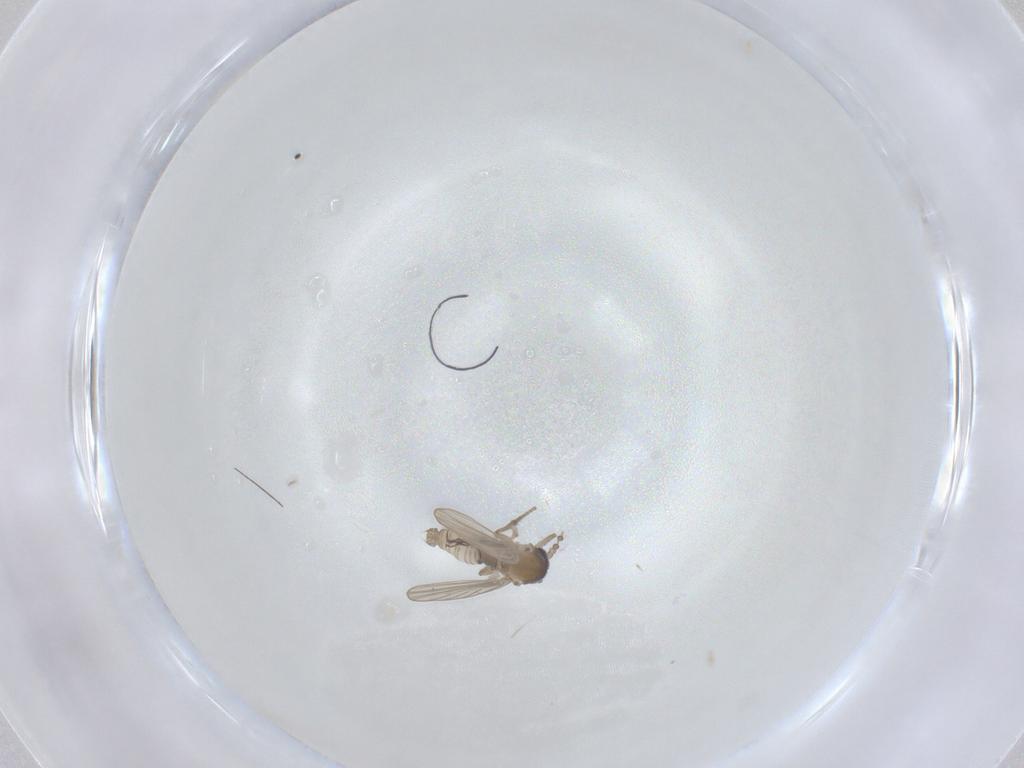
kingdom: Animalia
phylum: Arthropoda
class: Insecta
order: Diptera
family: Psychodidae
